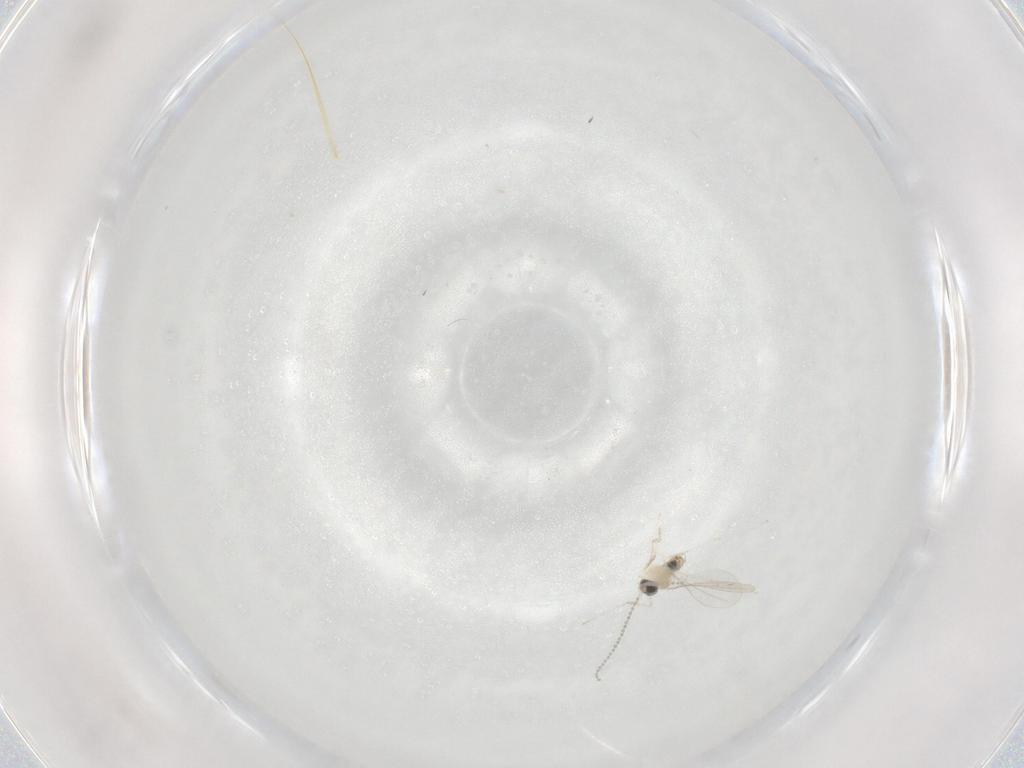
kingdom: Animalia
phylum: Arthropoda
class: Insecta
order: Diptera
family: Cecidomyiidae
